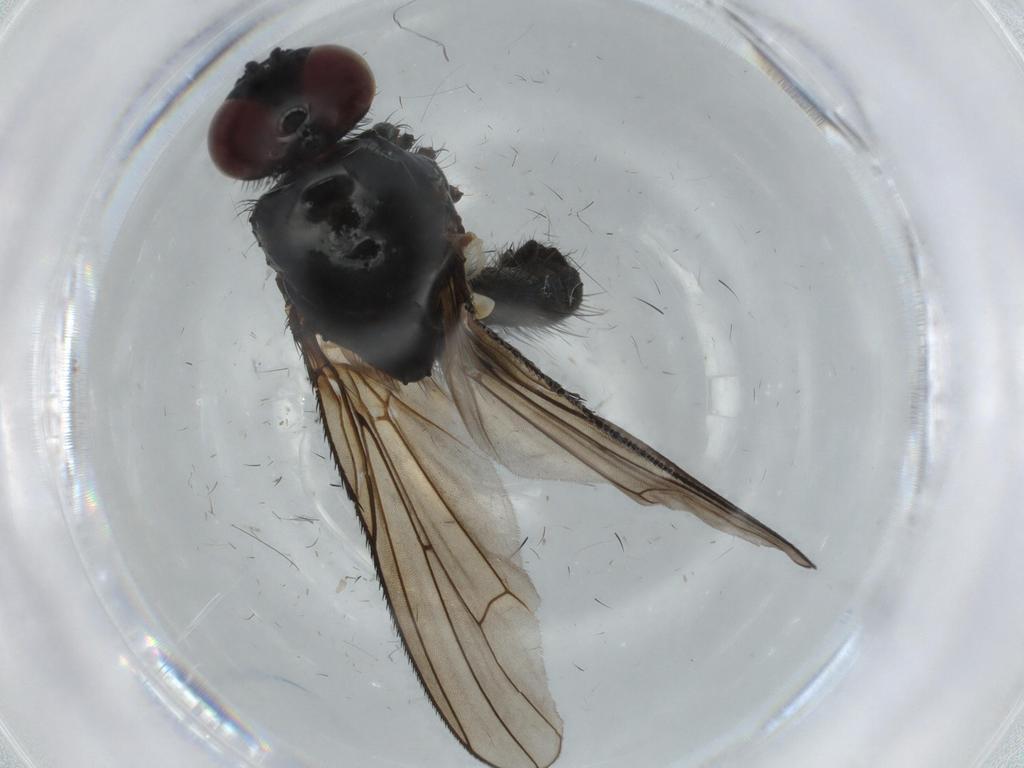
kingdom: Animalia
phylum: Arthropoda
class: Insecta
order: Diptera
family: Anthomyiidae
